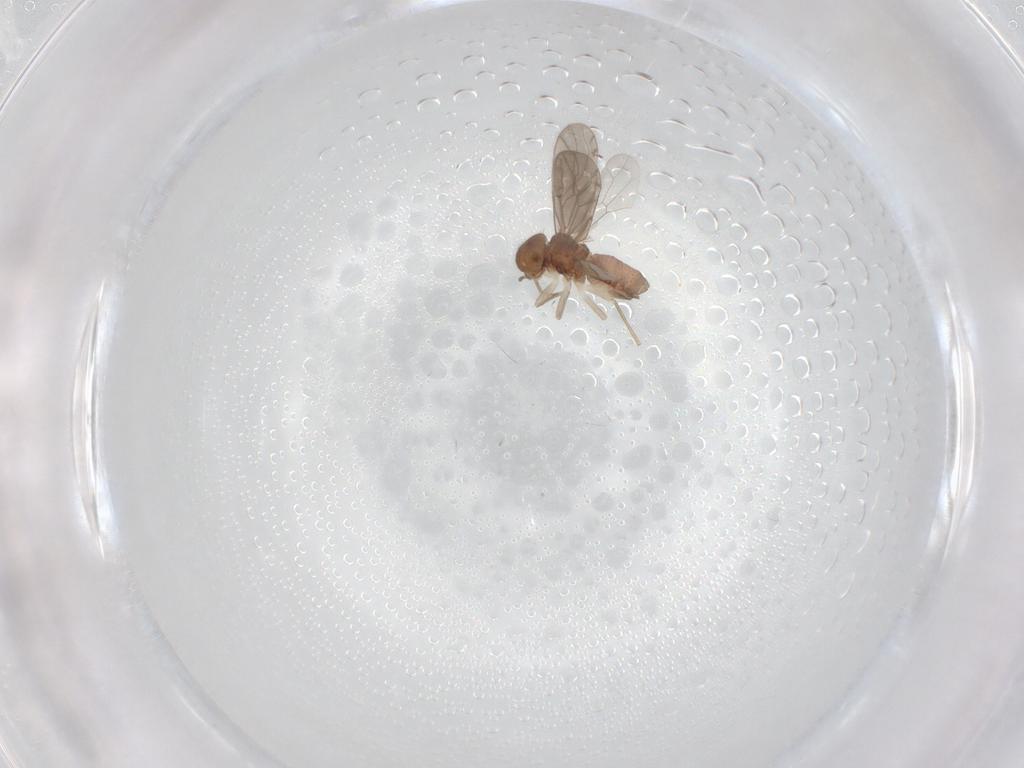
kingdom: Animalia
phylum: Arthropoda
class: Insecta
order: Psocodea
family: Ectopsocidae
